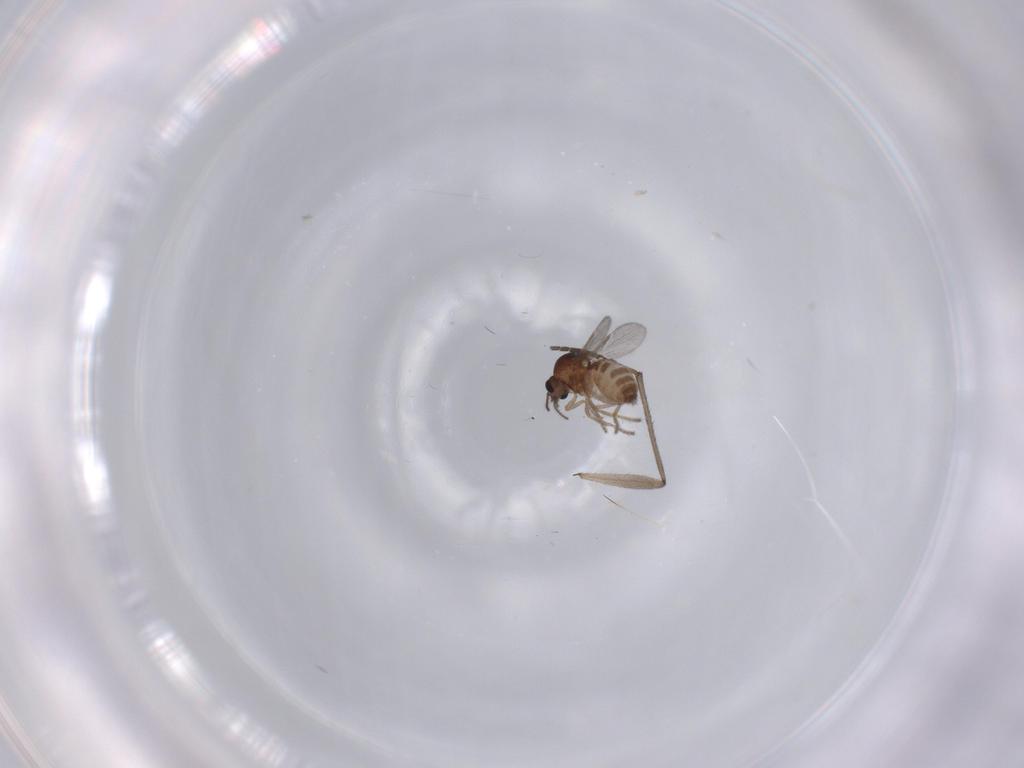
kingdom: Animalia
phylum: Arthropoda
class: Insecta
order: Diptera
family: Ceratopogonidae
